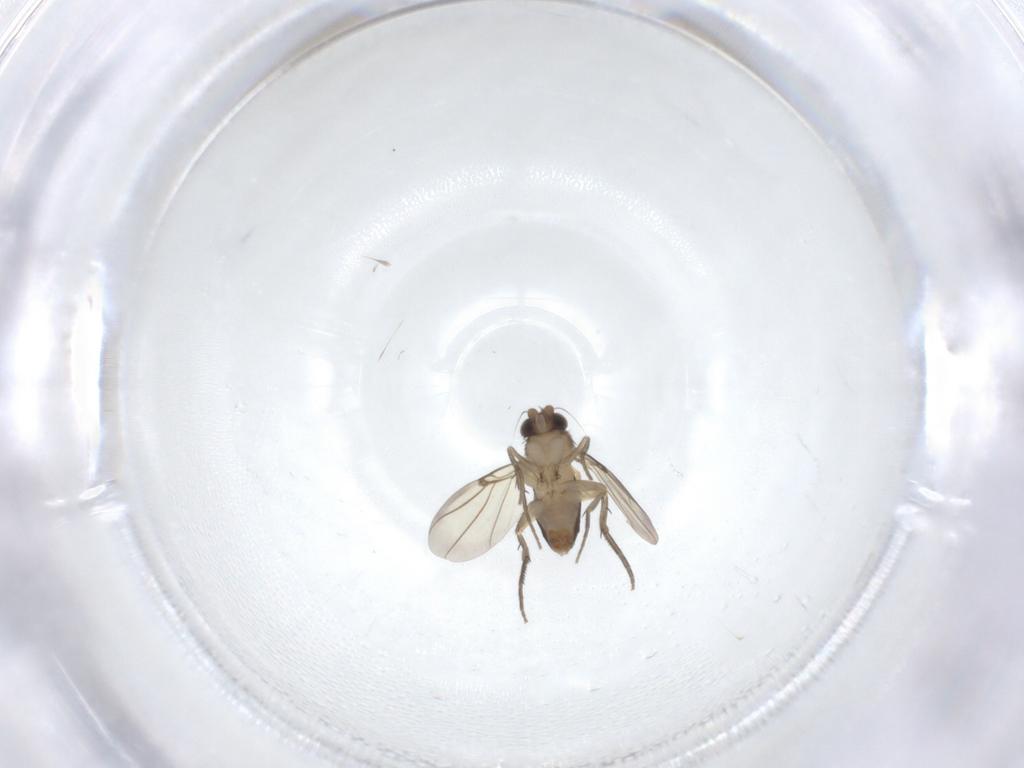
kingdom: Animalia
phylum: Arthropoda
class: Insecta
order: Diptera
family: Phoridae
